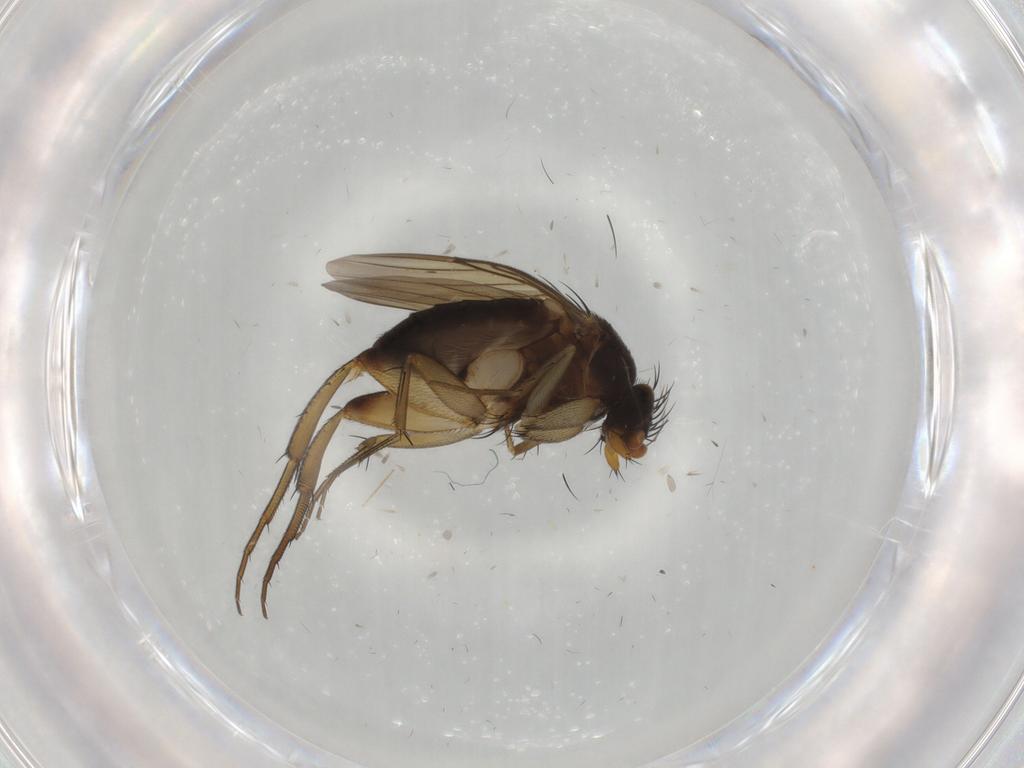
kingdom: Animalia
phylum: Arthropoda
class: Insecta
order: Diptera
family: Phoridae
